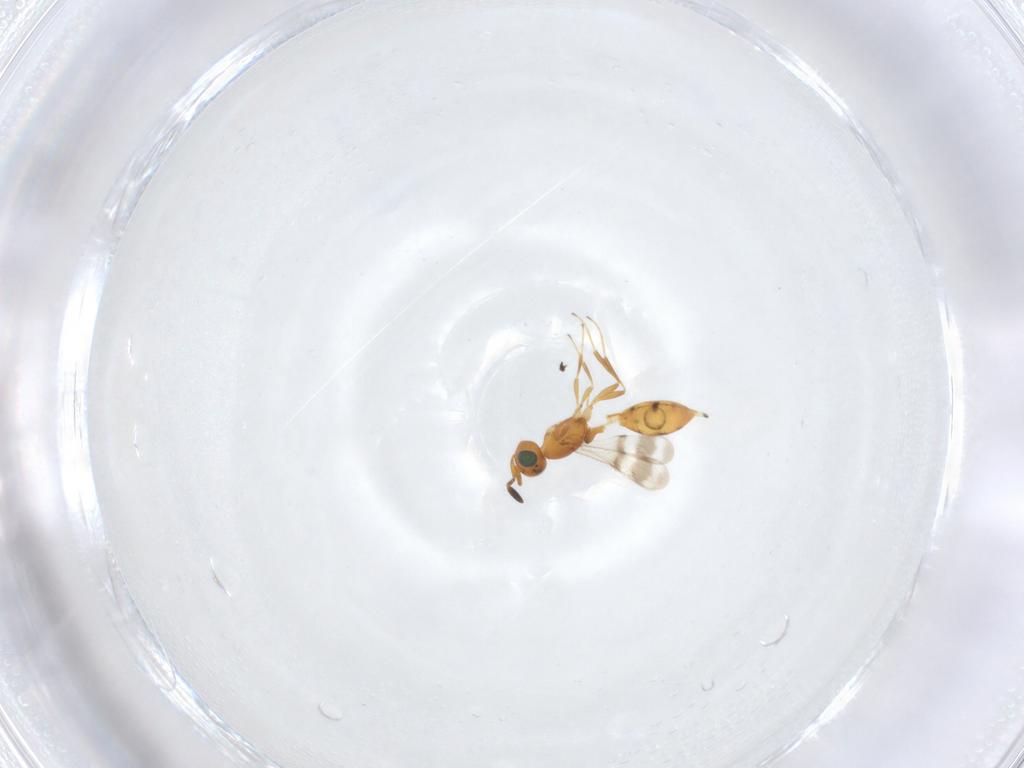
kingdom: Animalia
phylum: Arthropoda
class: Insecta
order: Hymenoptera
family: Scelionidae
